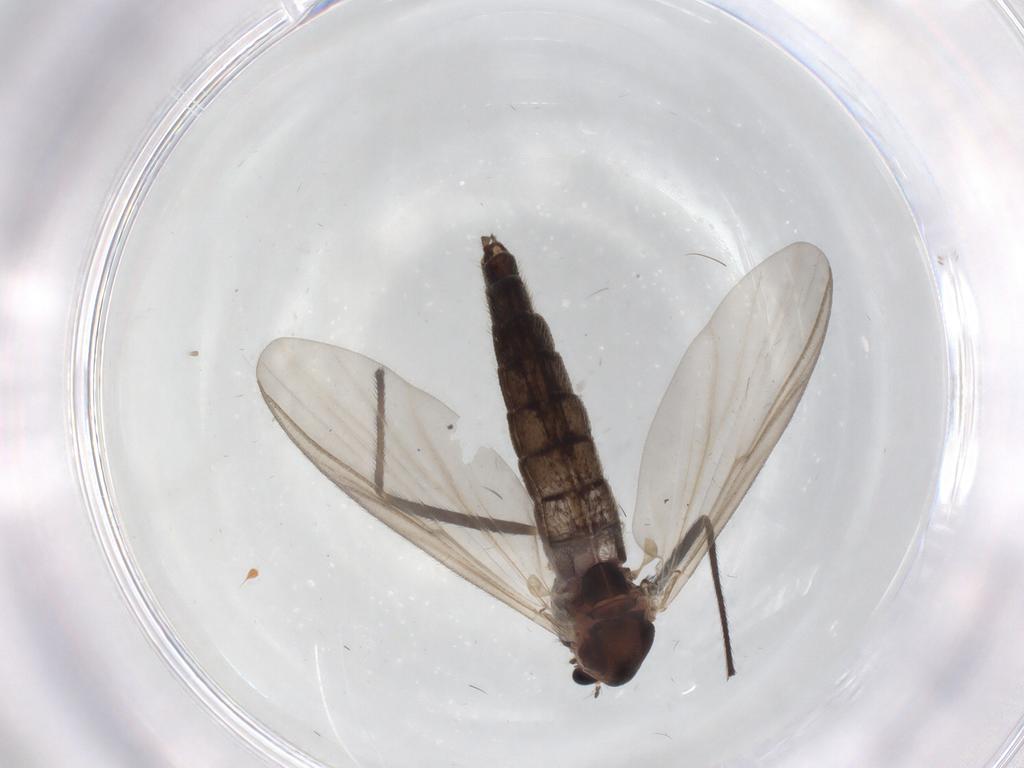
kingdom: Animalia
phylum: Arthropoda
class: Insecta
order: Diptera
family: Chironomidae
